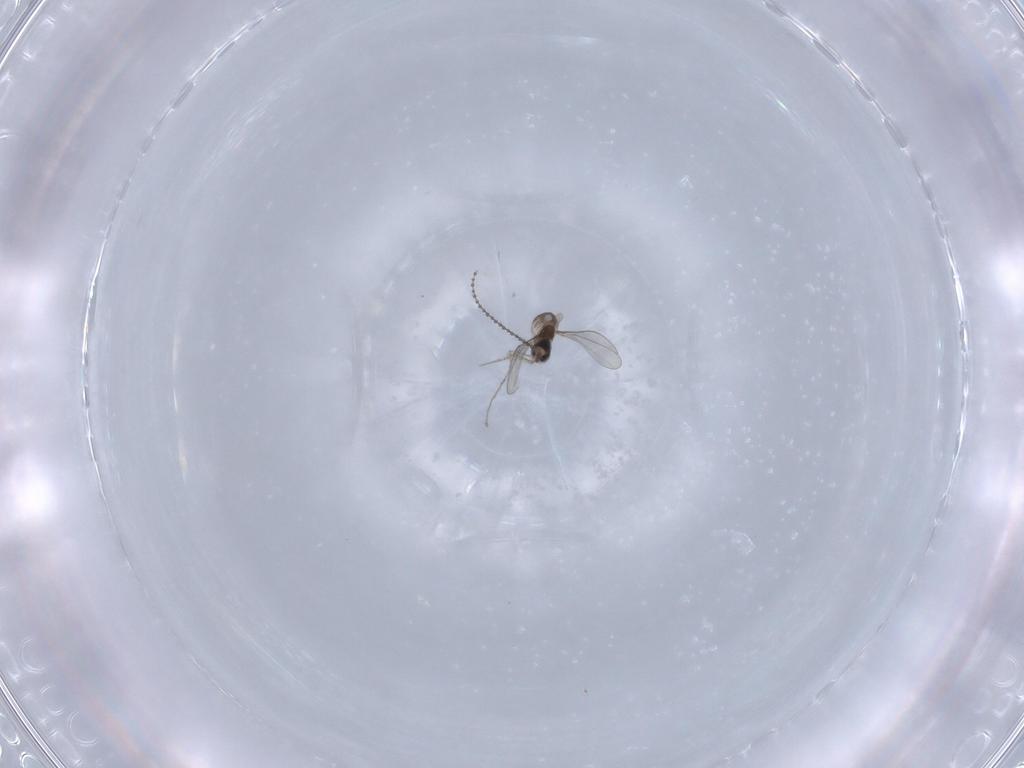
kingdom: Animalia
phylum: Arthropoda
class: Insecta
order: Diptera
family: Cecidomyiidae
